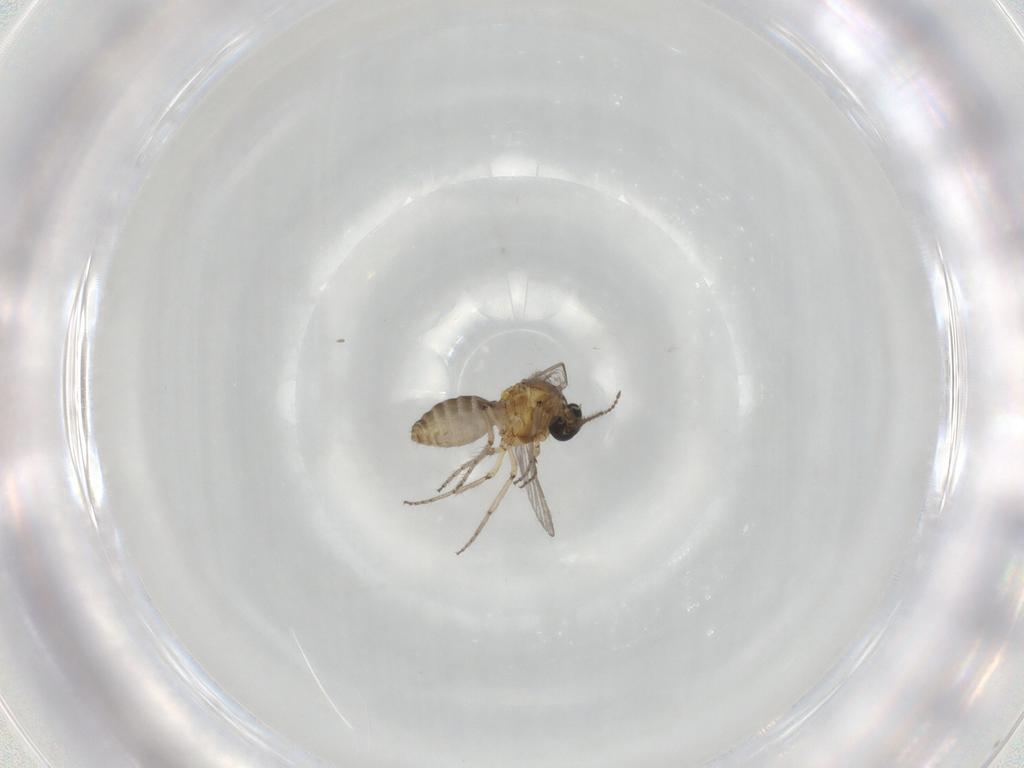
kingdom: Animalia
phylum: Arthropoda
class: Insecta
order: Diptera
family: Ceratopogonidae
